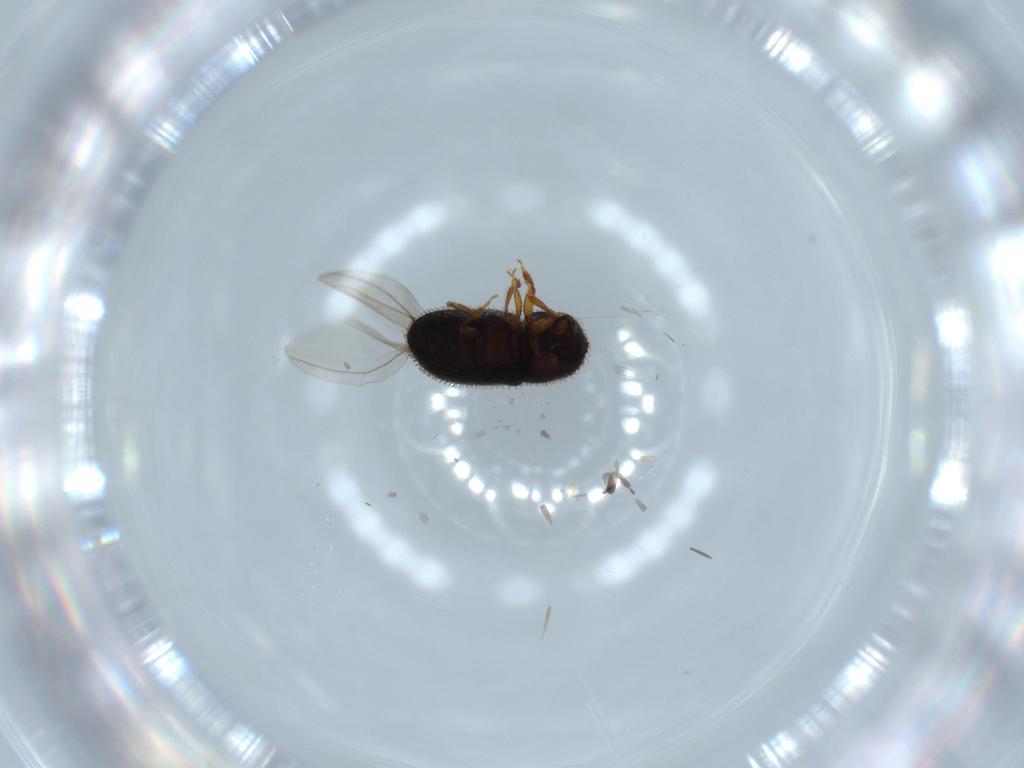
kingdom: Animalia
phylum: Arthropoda
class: Insecta
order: Coleoptera
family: Curculionidae
